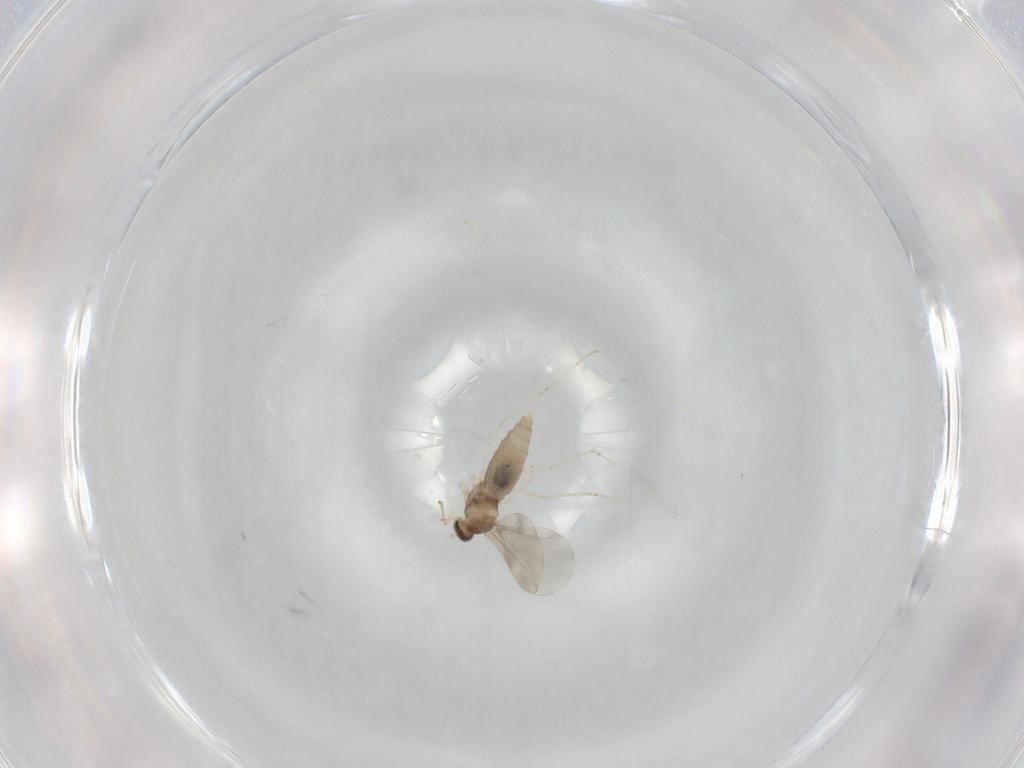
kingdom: Animalia
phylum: Arthropoda
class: Insecta
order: Diptera
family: Cecidomyiidae
